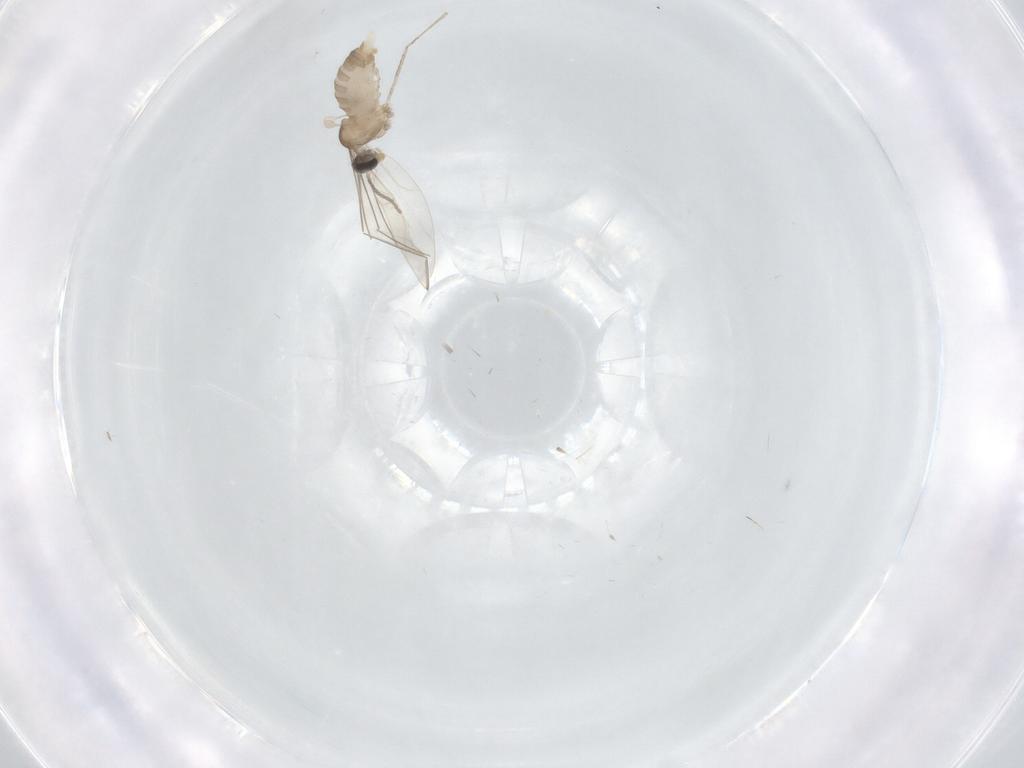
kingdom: Animalia
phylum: Arthropoda
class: Insecta
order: Diptera
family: Cecidomyiidae
